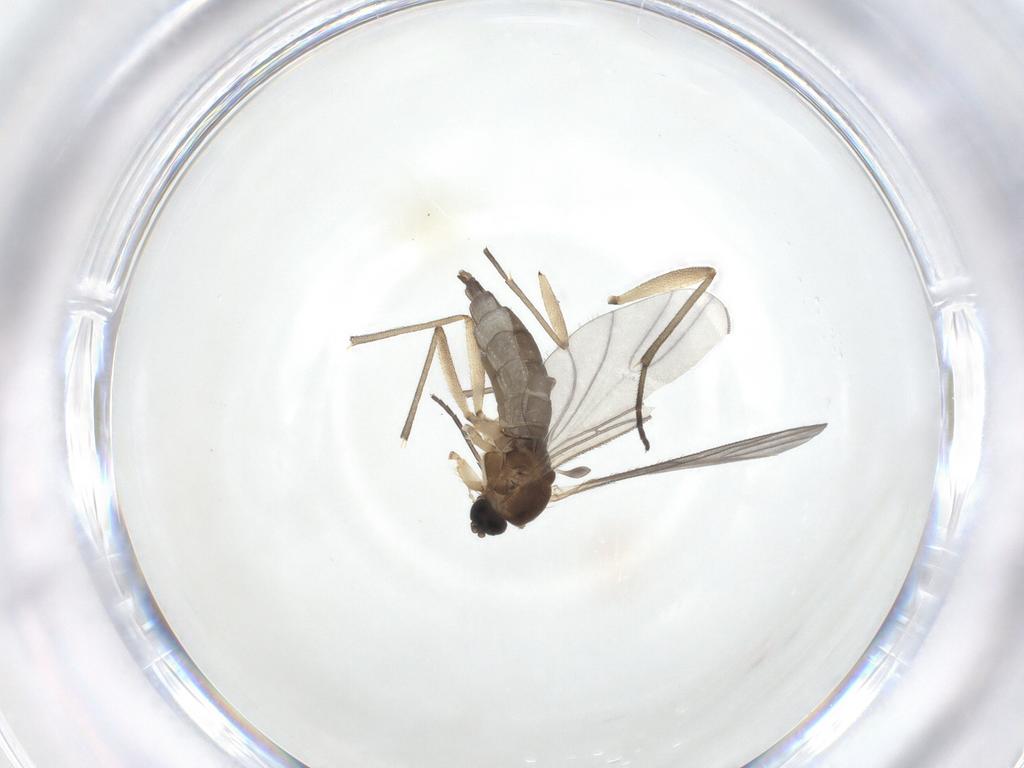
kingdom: Animalia
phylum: Arthropoda
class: Insecta
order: Diptera
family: Sciaridae
